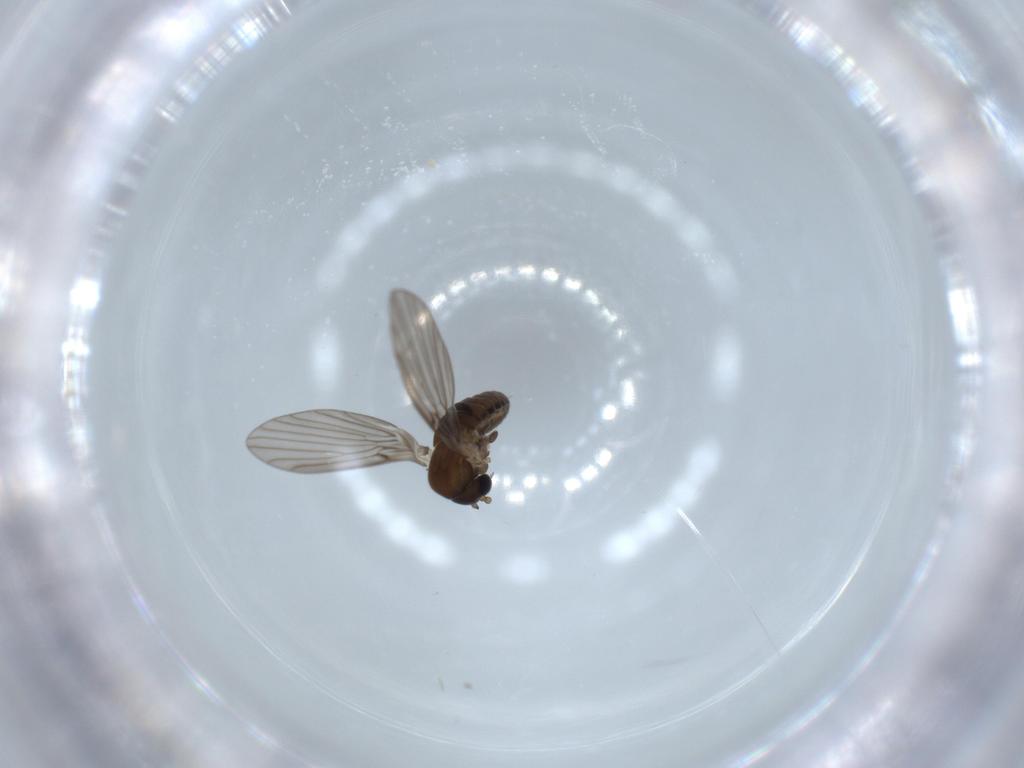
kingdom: Animalia
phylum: Arthropoda
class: Insecta
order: Diptera
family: Psychodidae
